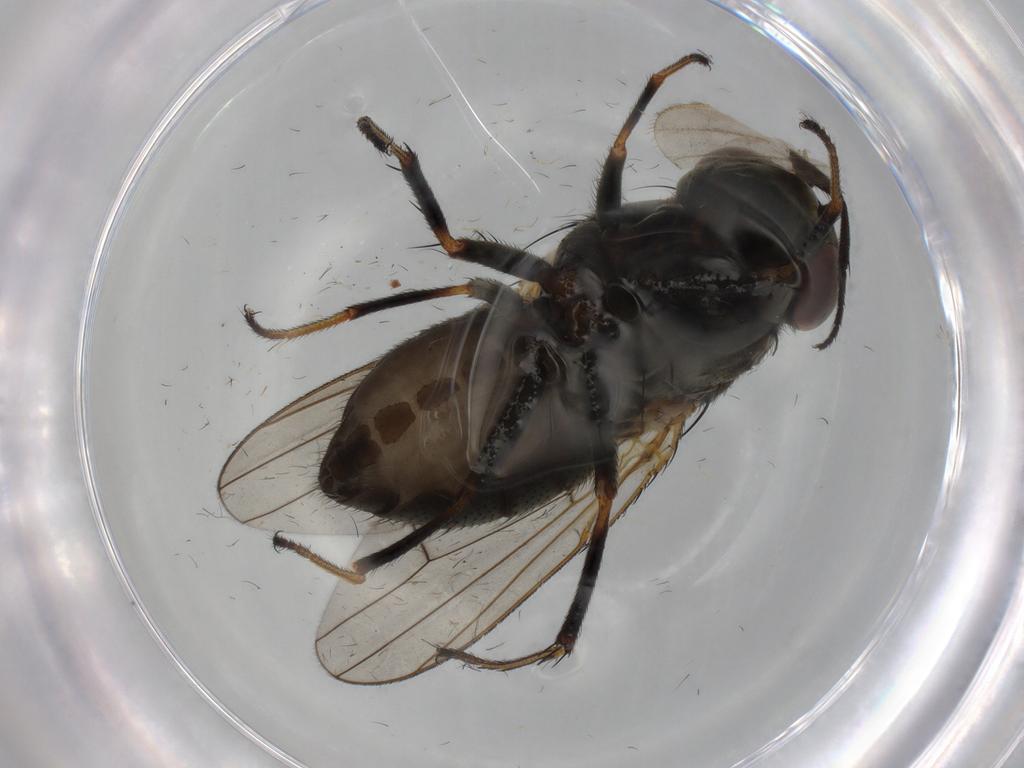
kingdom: Animalia
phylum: Arthropoda
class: Insecta
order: Diptera
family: Ephydridae
